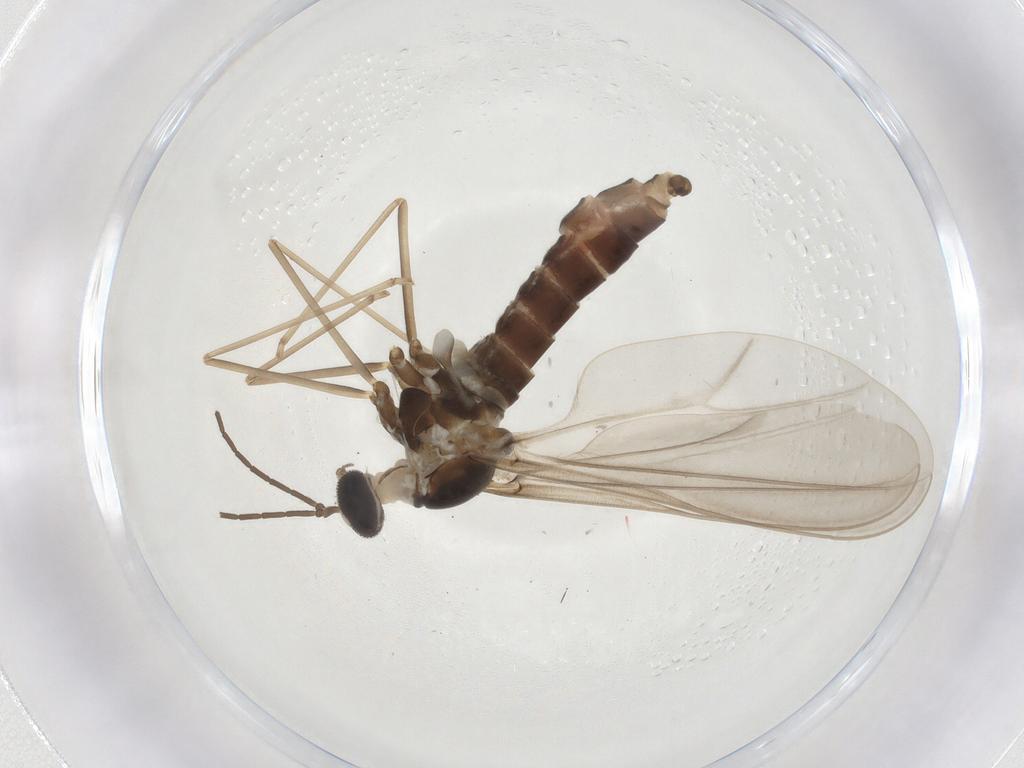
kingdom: Animalia
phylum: Arthropoda
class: Insecta
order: Diptera
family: Cecidomyiidae
